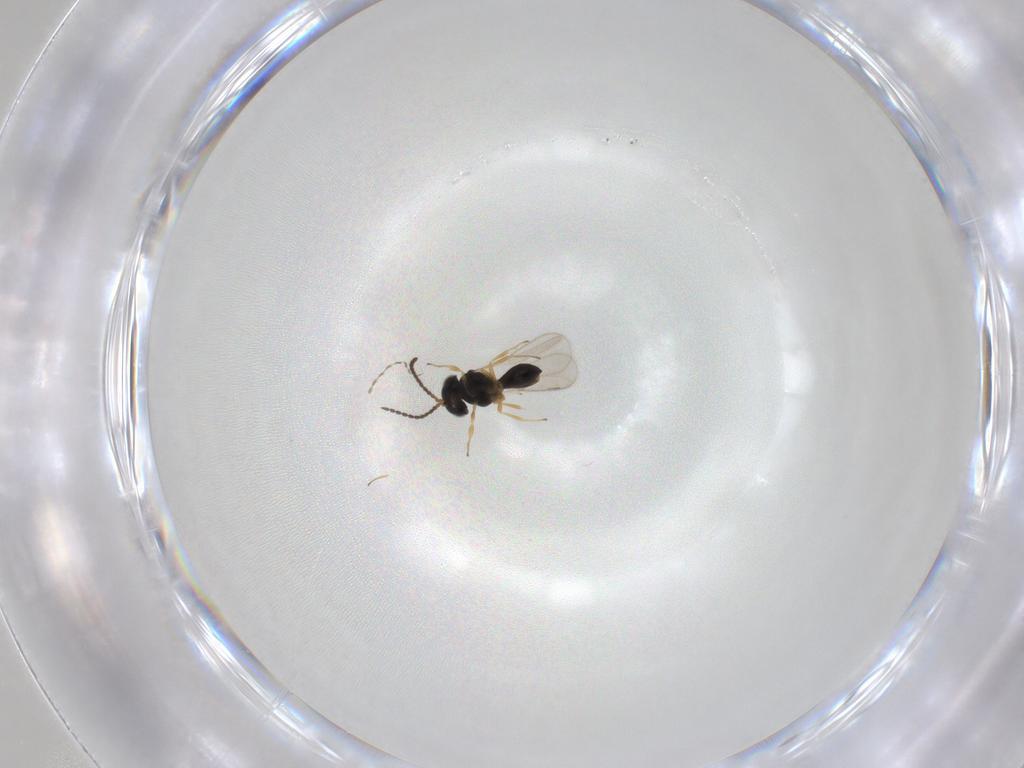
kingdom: Animalia
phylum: Arthropoda
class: Insecta
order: Hymenoptera
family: Scelionidae
